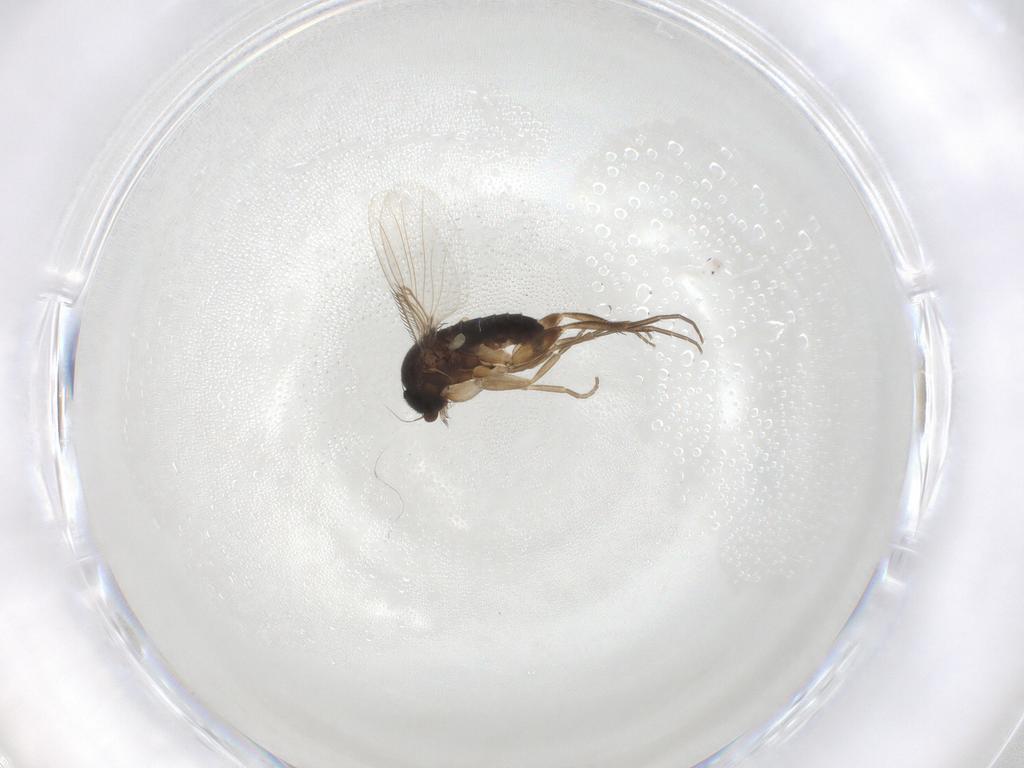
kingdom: Animalia
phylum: Arthropoda
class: Insecta
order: Diptera
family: Phoridae
